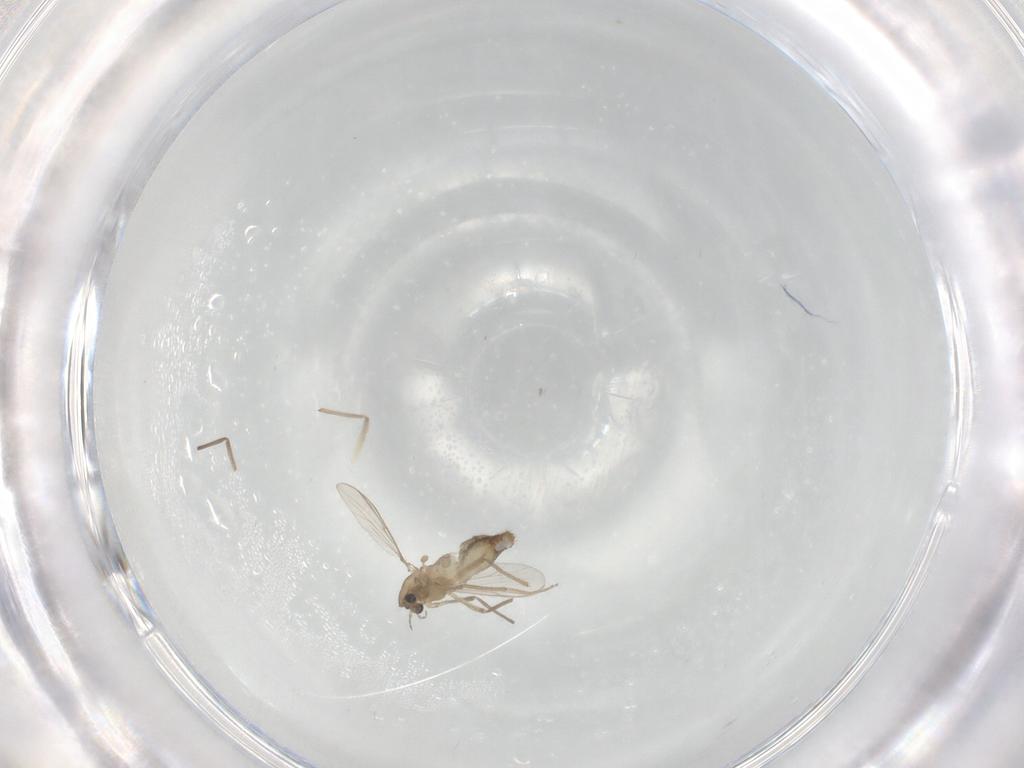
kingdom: Animalia
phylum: Arthropoda
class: Insecta
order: Diptera
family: Chironomidae
